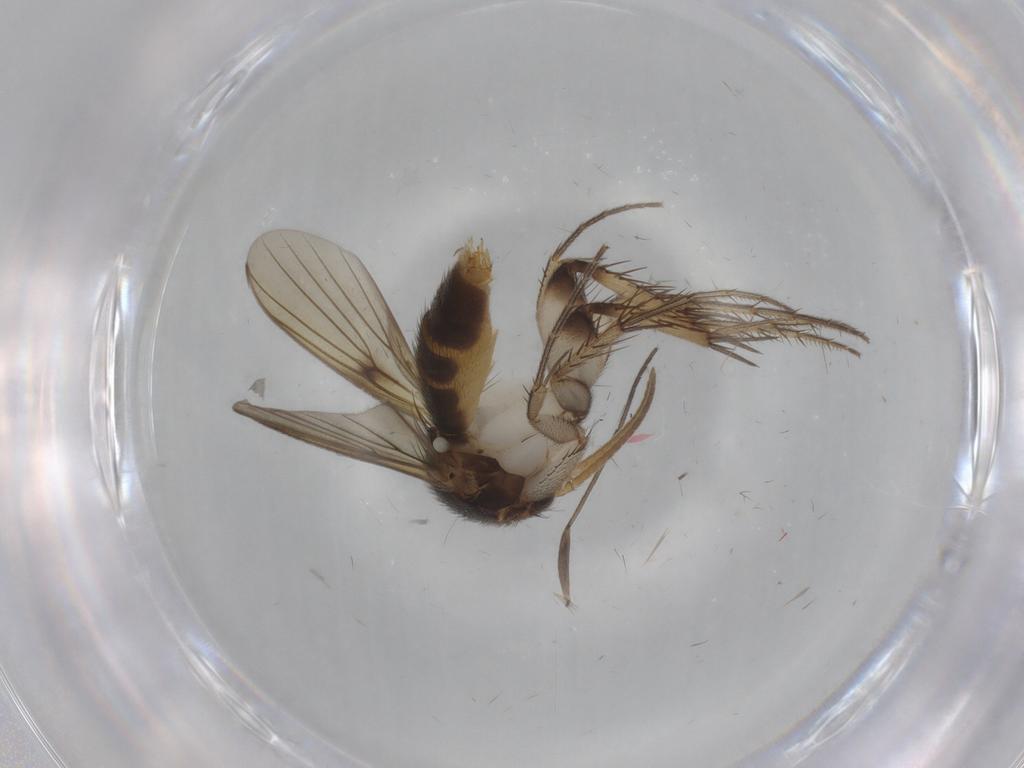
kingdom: Animalia
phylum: Arthropoda
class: Insecta
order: Diptera
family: Mycetophilidae
